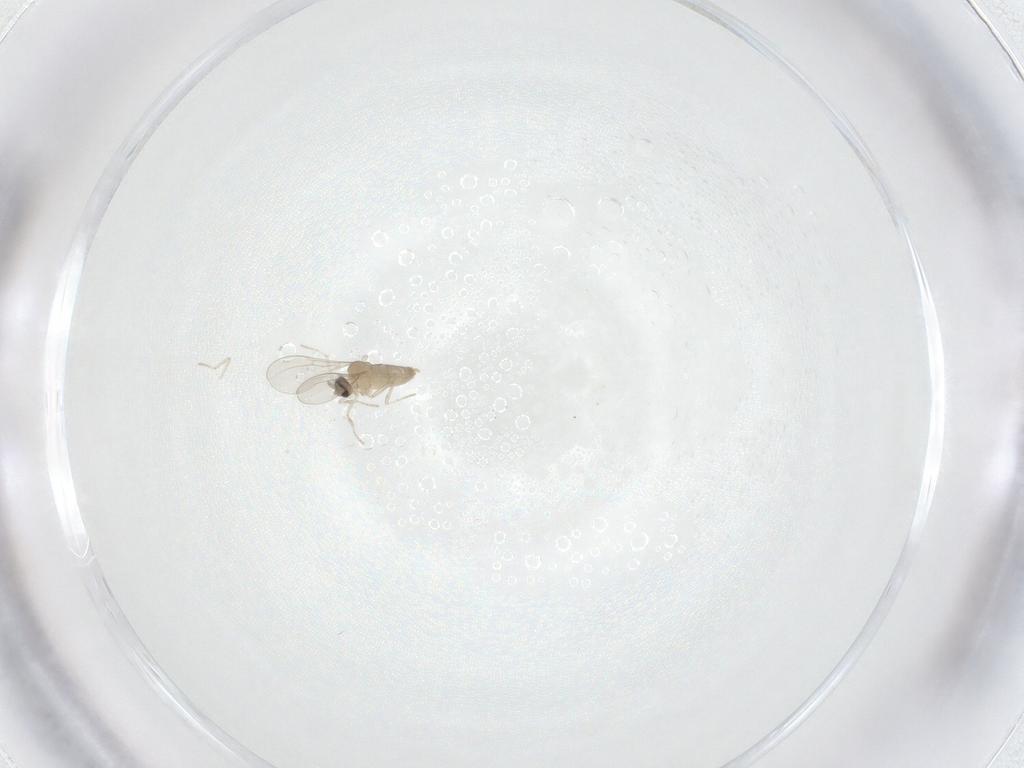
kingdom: Animalia
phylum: Arthropoda
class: Insecta
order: Diptera
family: Cecidomyiidae
